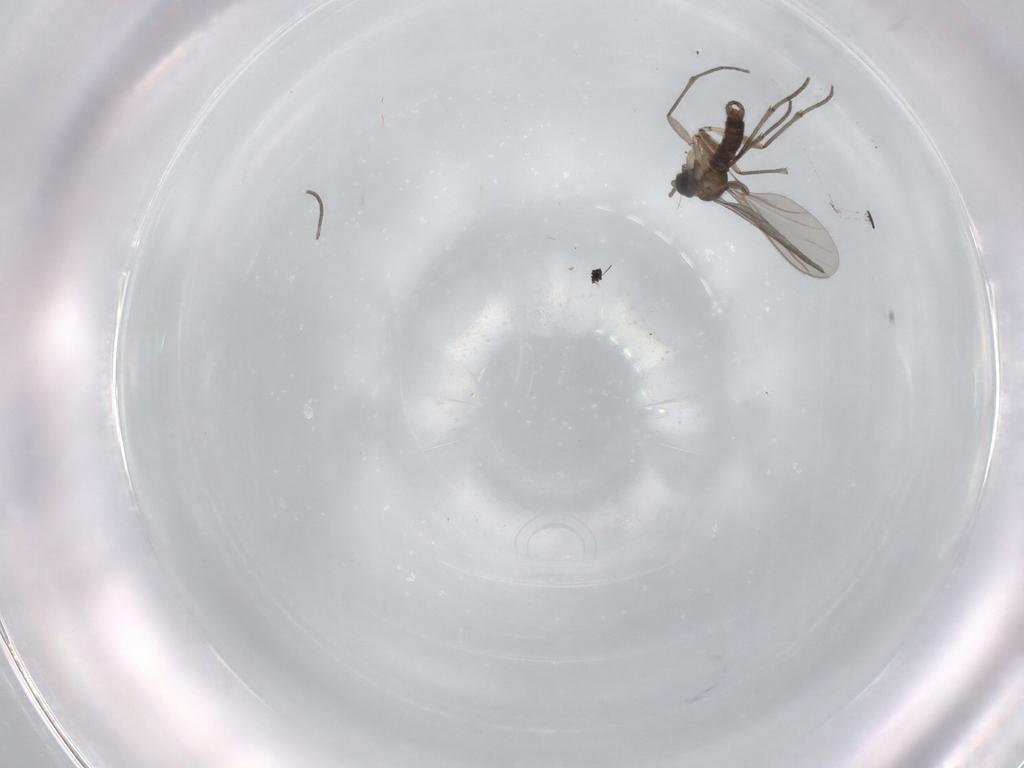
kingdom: Animalia
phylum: Arthropoda
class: Insecta
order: Diptera
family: Sciaridae
